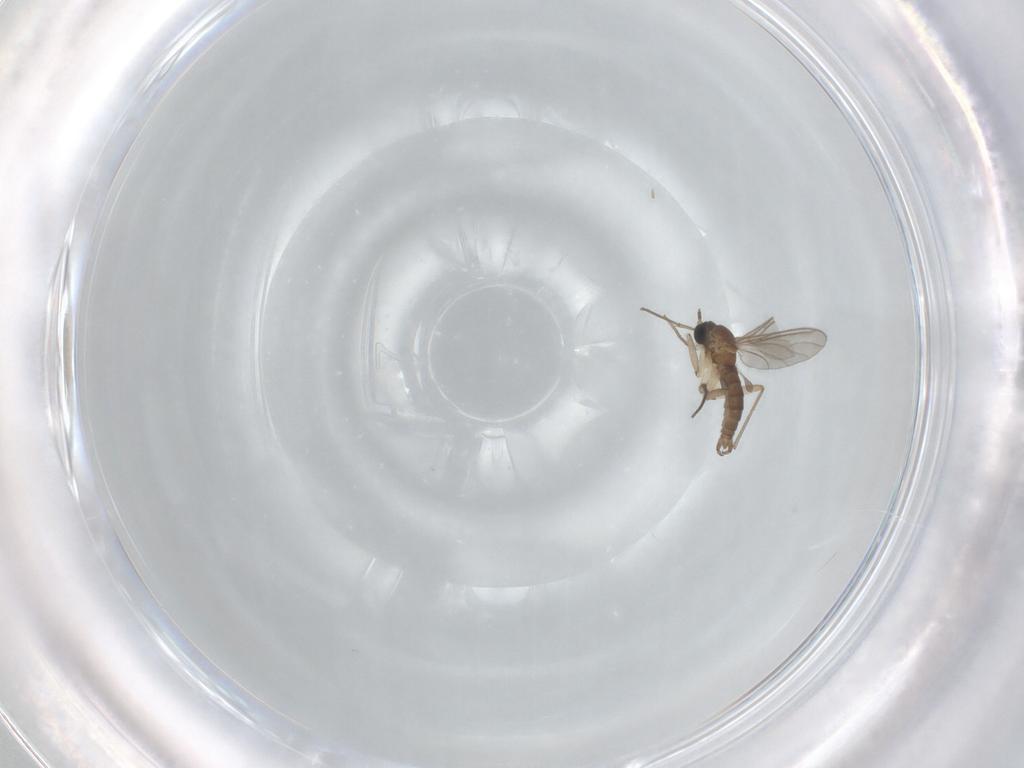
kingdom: Animalia
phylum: Arthropoda
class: Insecta
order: Diptera
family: Sciaridae
